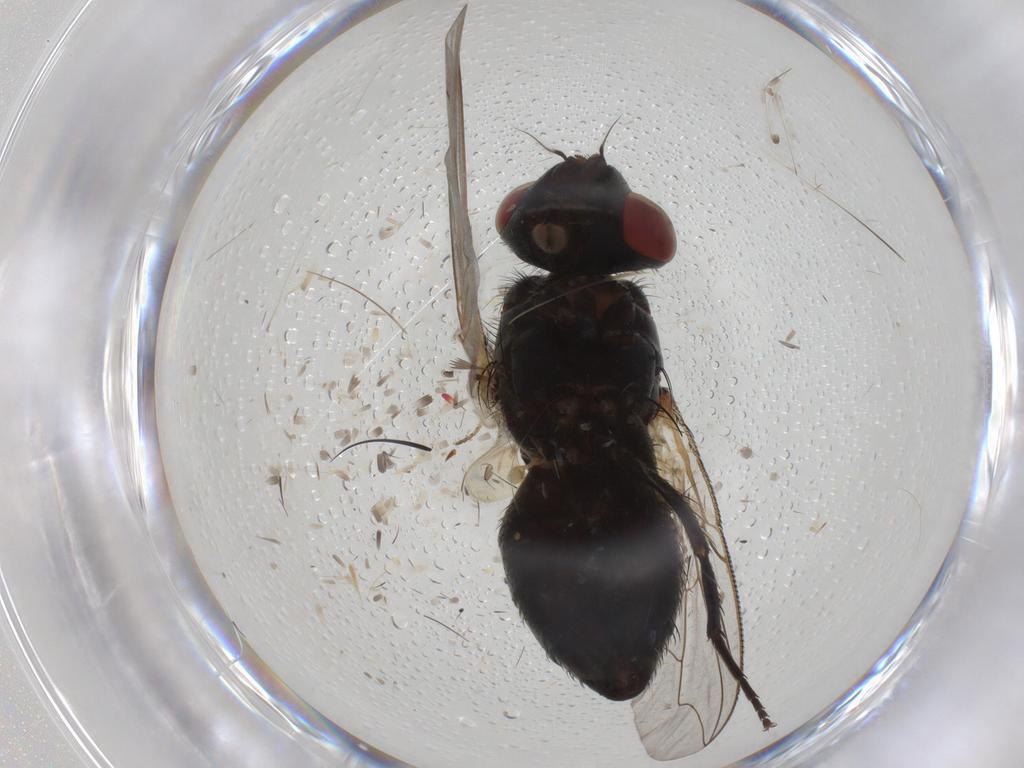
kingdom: Animalia
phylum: Arthropoda
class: Insecta
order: Diptera
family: Sarcophagidae
